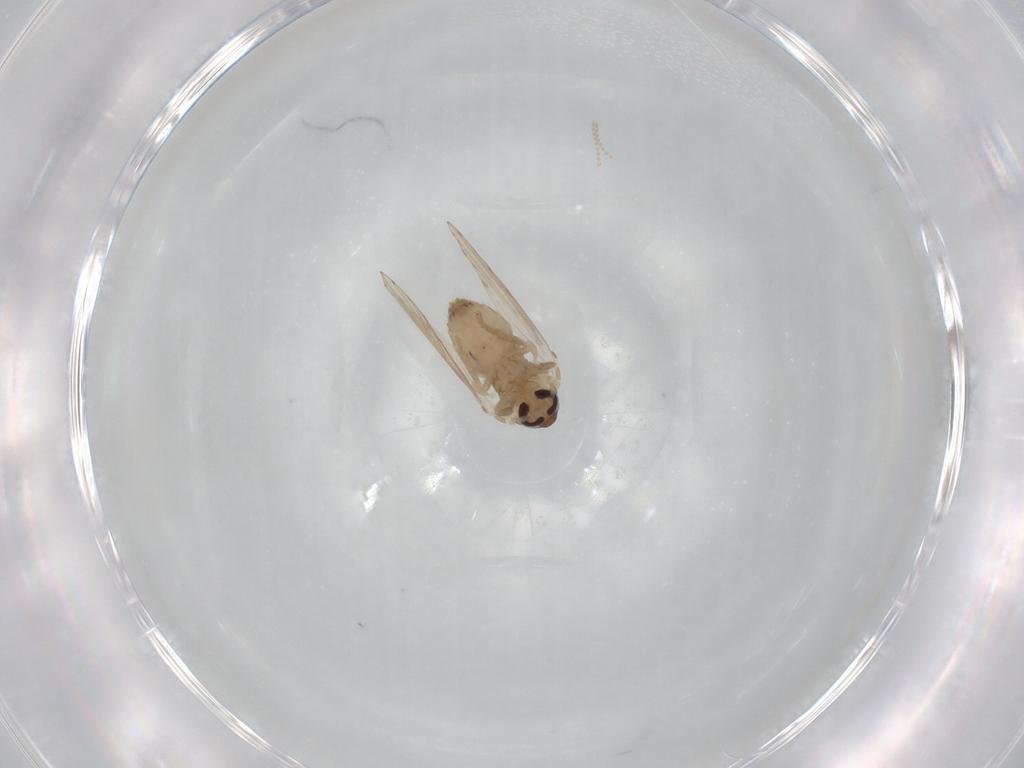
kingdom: Animalia
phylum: Arthropoda
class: Insecta
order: Diptera
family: Psychodidae
